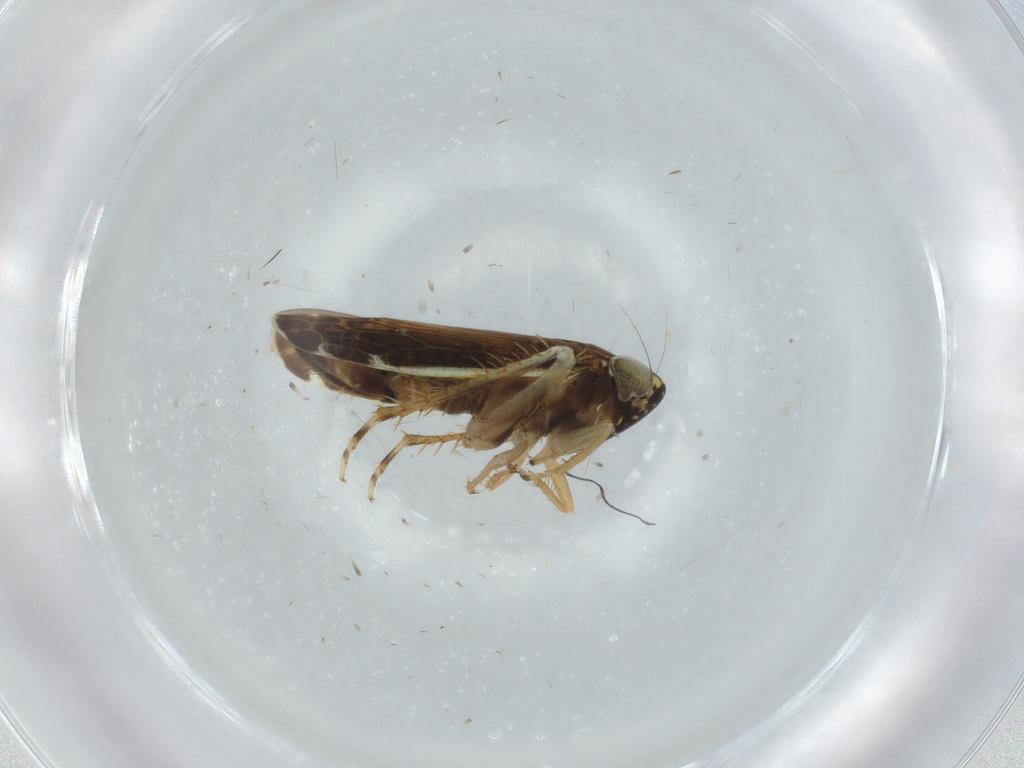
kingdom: Animalia
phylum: Arthropoda
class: Insecta
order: Hemiptera
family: Cicadellidae
